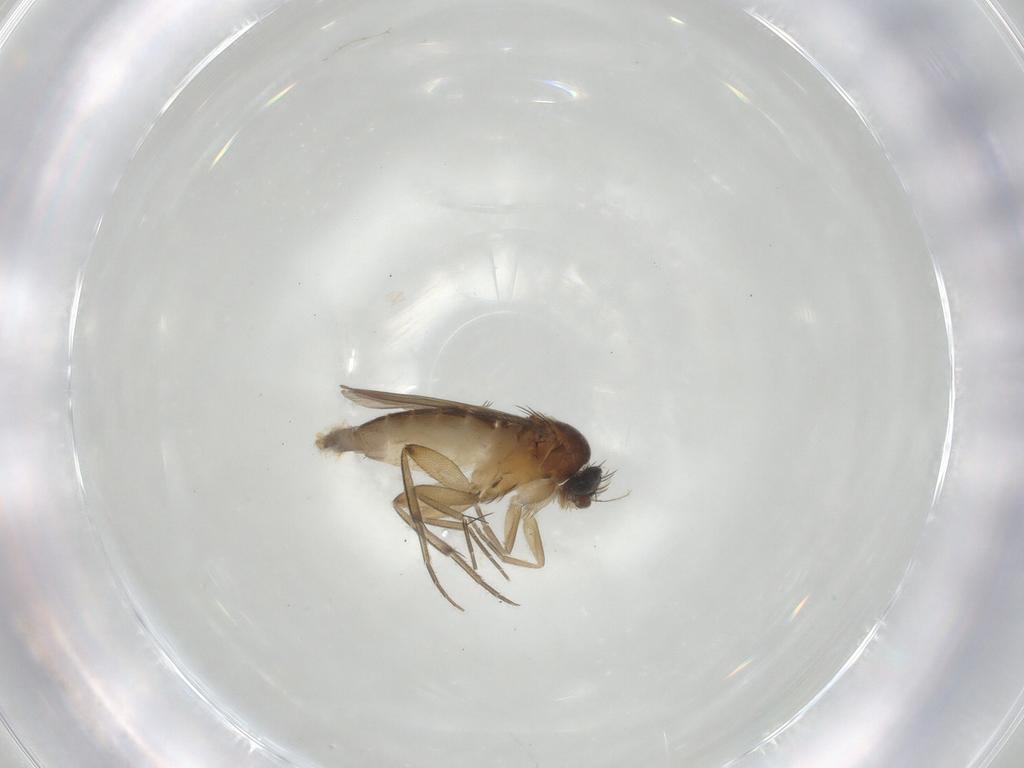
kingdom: Animalia
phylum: Arthropoda
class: Insecta
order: Diptera
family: Phoridae
